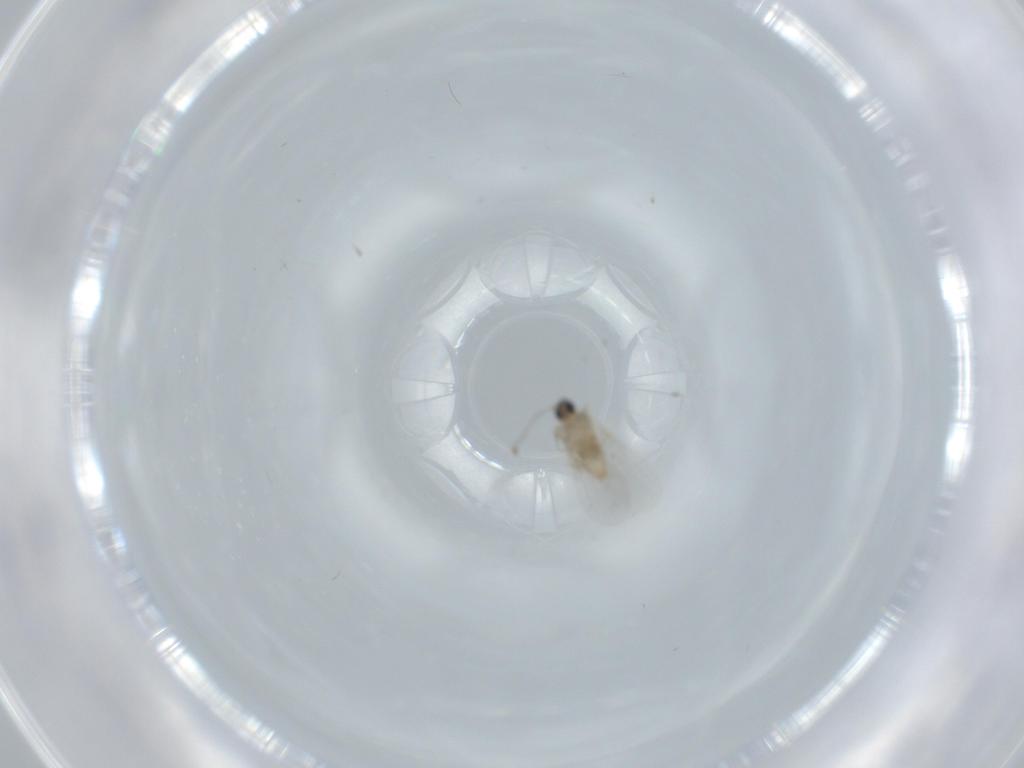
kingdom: Animalia
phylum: Arthropoda
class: Insecta
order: Diptera
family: Cecidomyiidae
